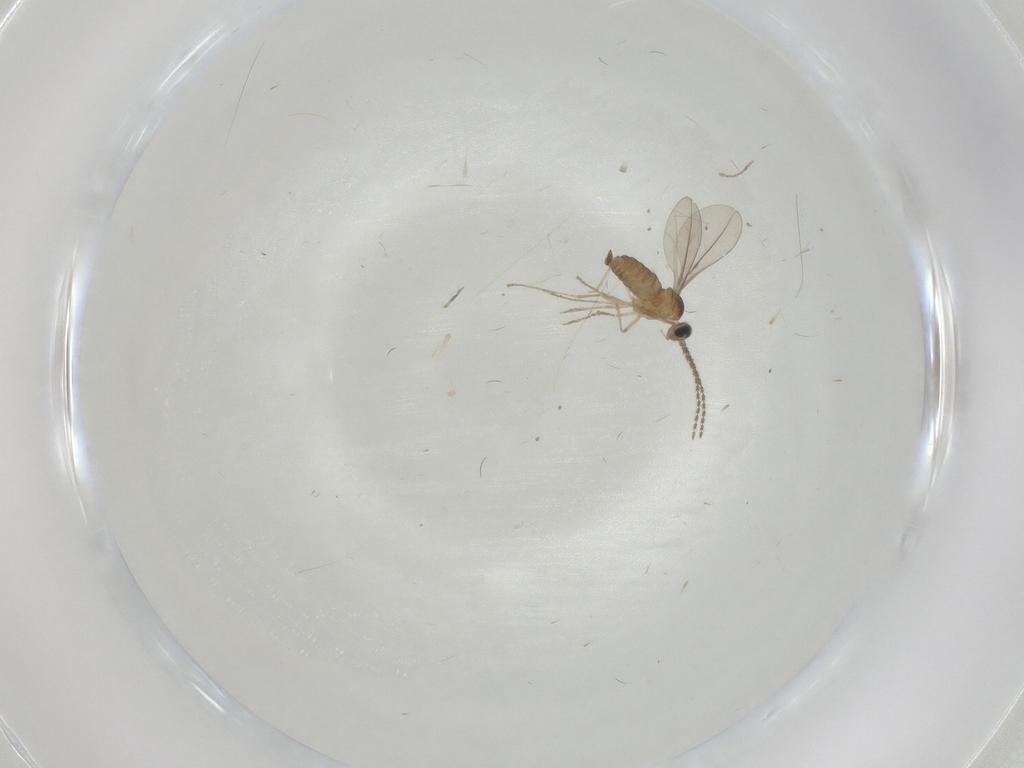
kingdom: Animalia
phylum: Arthropoda
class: Insecta
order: Diptera
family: Cecidomyiidae
